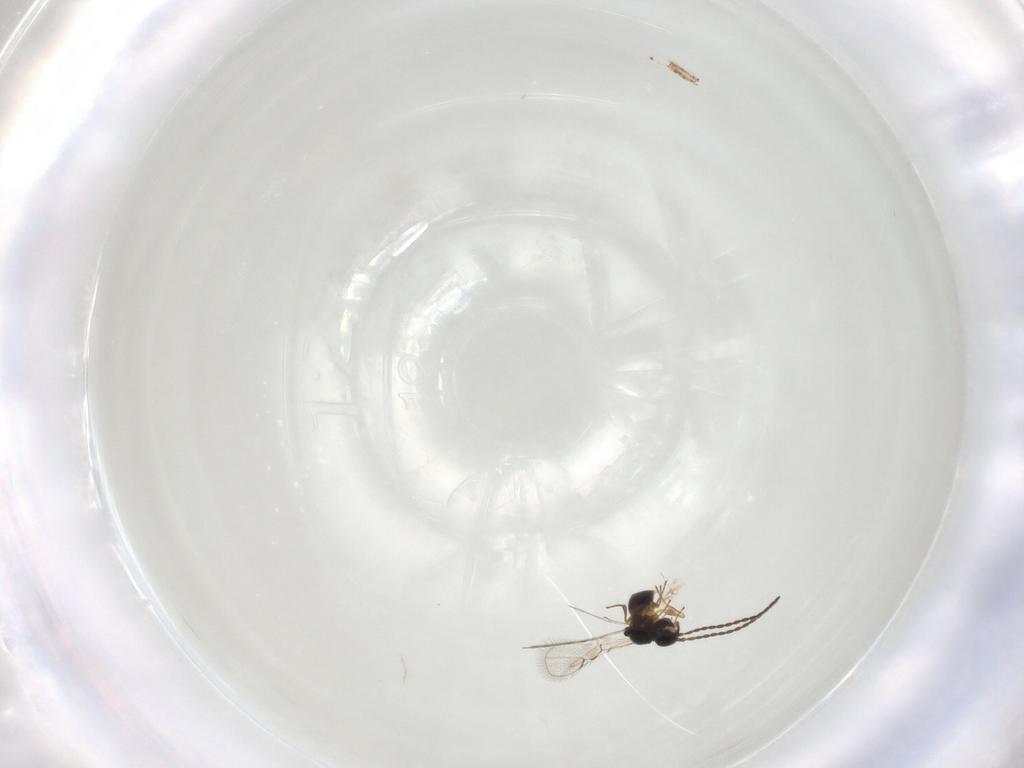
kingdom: Animalia
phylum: Arthropoda
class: Insecta
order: Hymenoptera
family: Figitidae
